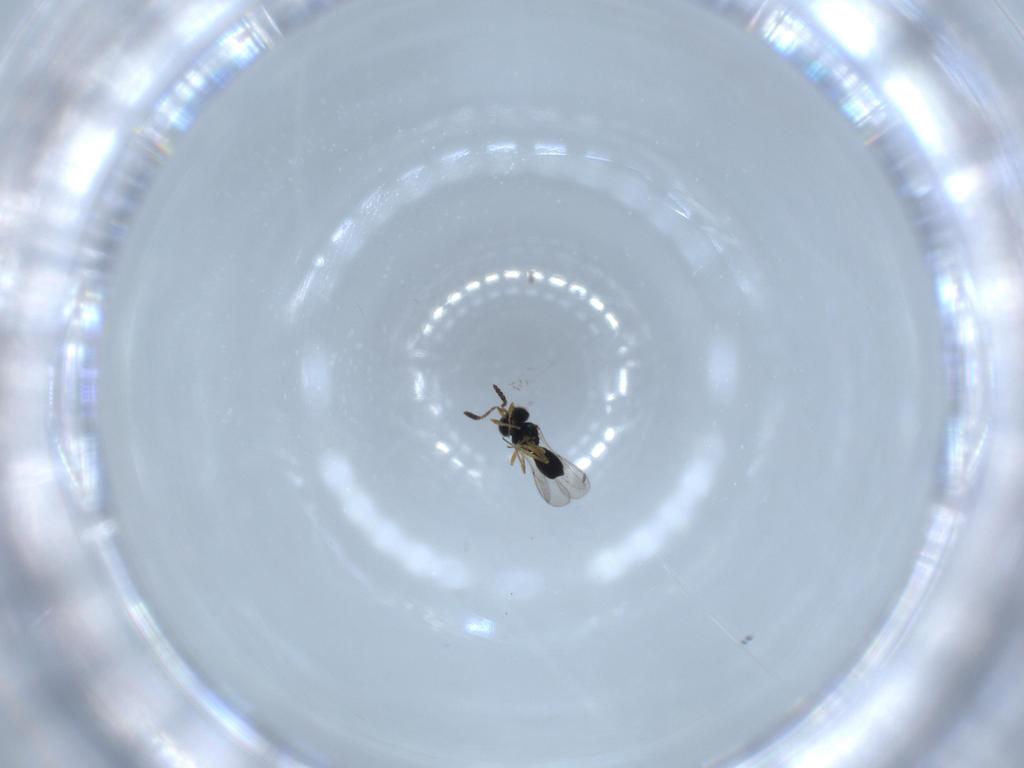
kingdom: Animalia
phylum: Arthropoda
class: Insecta
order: Hymenoptera
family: Scelionidae
